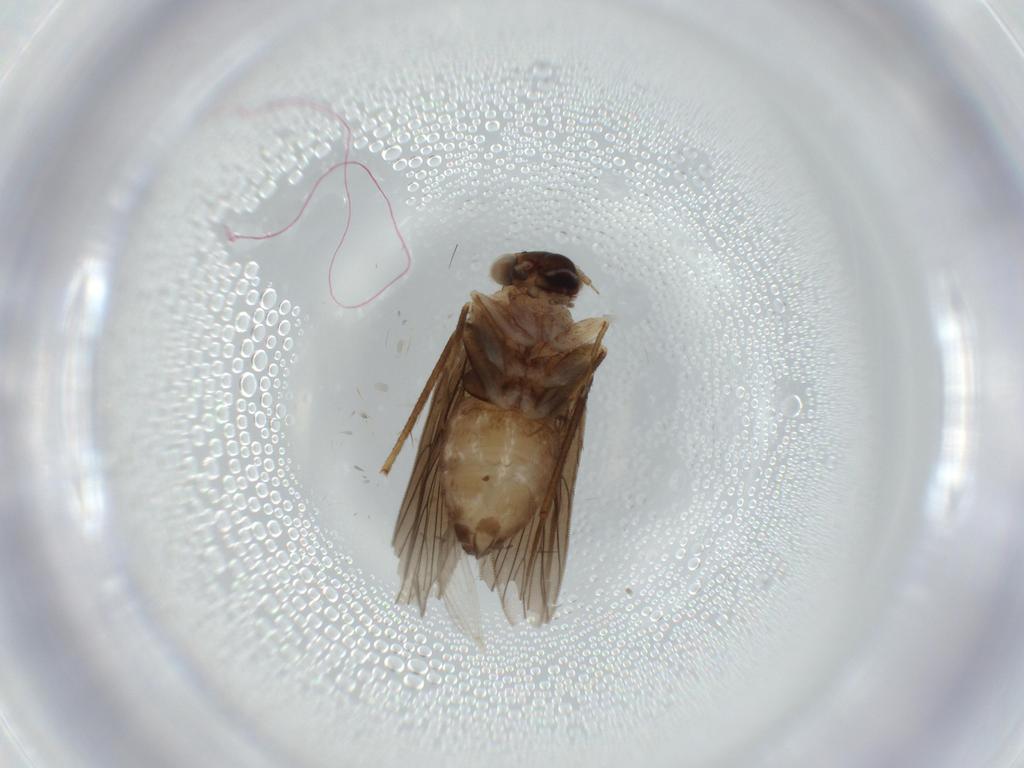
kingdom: Animalia
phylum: Arthropoda
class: Insecta
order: Psocodea
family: Lepidopsocidae
